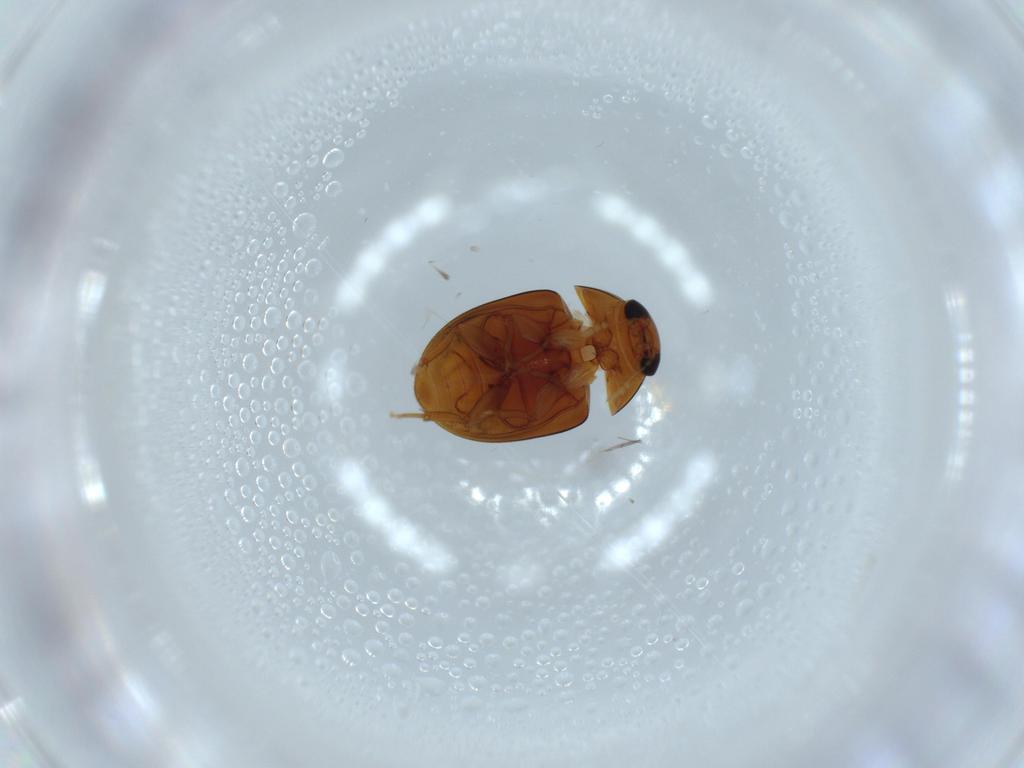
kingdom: Animalia
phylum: Arthropoda
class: Insecta
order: Coleoptera
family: Phalacridae
